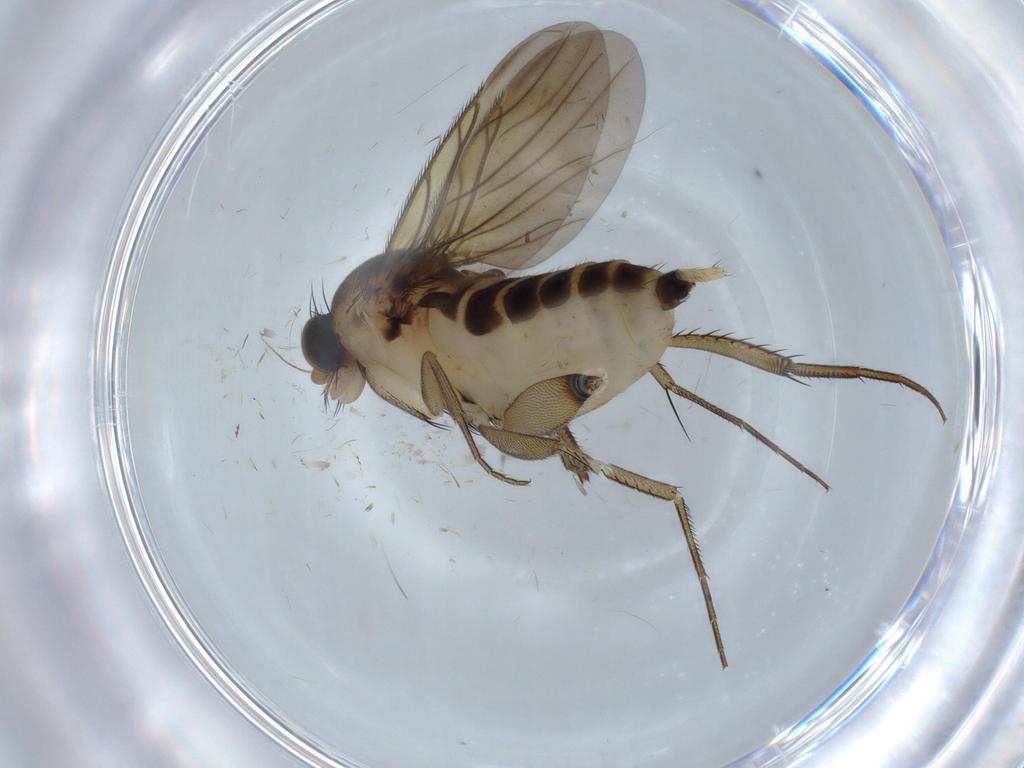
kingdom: Animalia
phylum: Arthropoda
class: Insecta
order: Diptera
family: Phoridae
